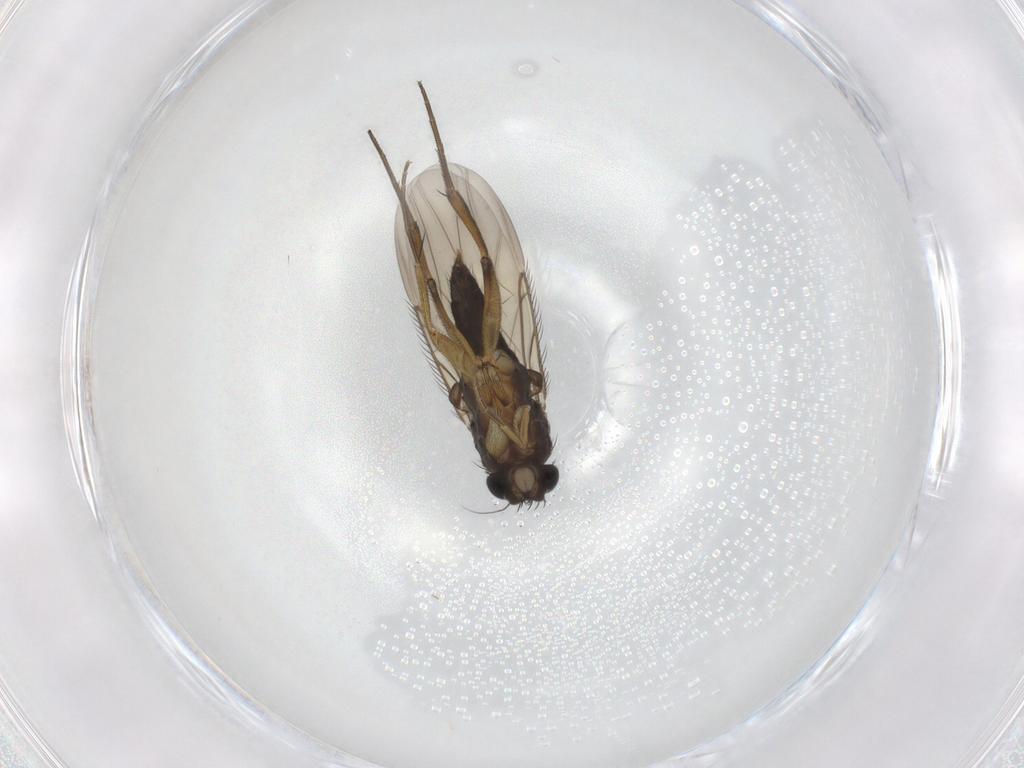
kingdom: Animalia
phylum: Arthropoda
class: Insecta
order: Diptera
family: Phoridae
